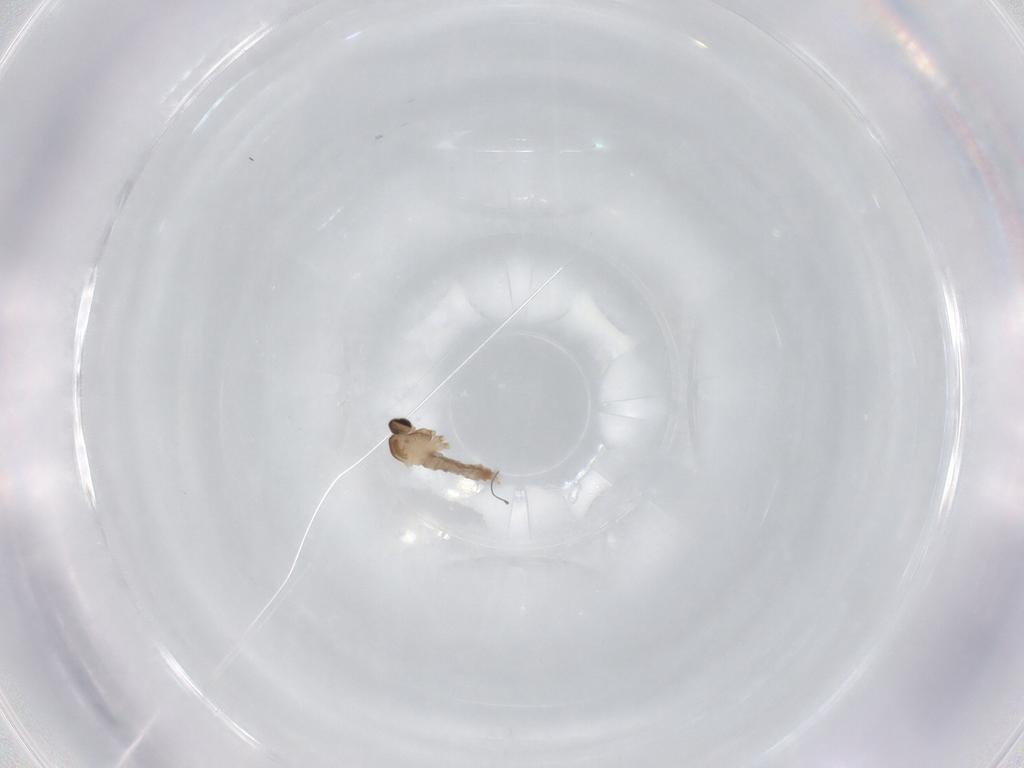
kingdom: Animalia
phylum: Arthropoda
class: Insecta
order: Diptera
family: Cecidomyiidae
